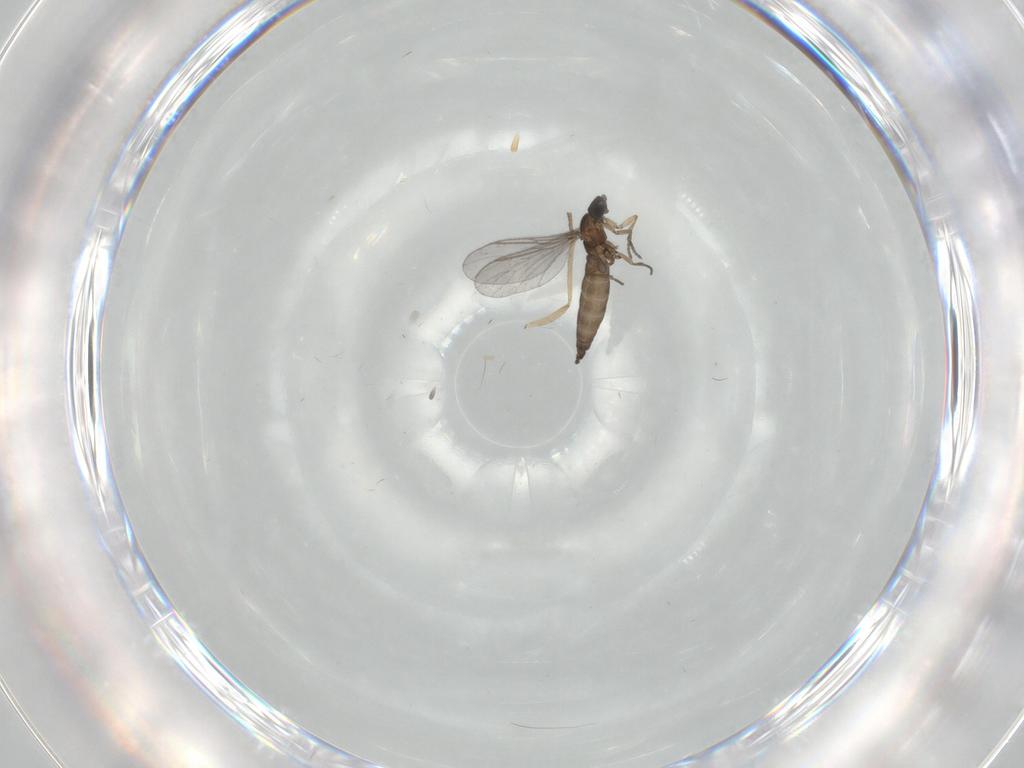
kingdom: Animalia
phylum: Arthropoda
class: Insecta
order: Diptera
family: Sciaridae
